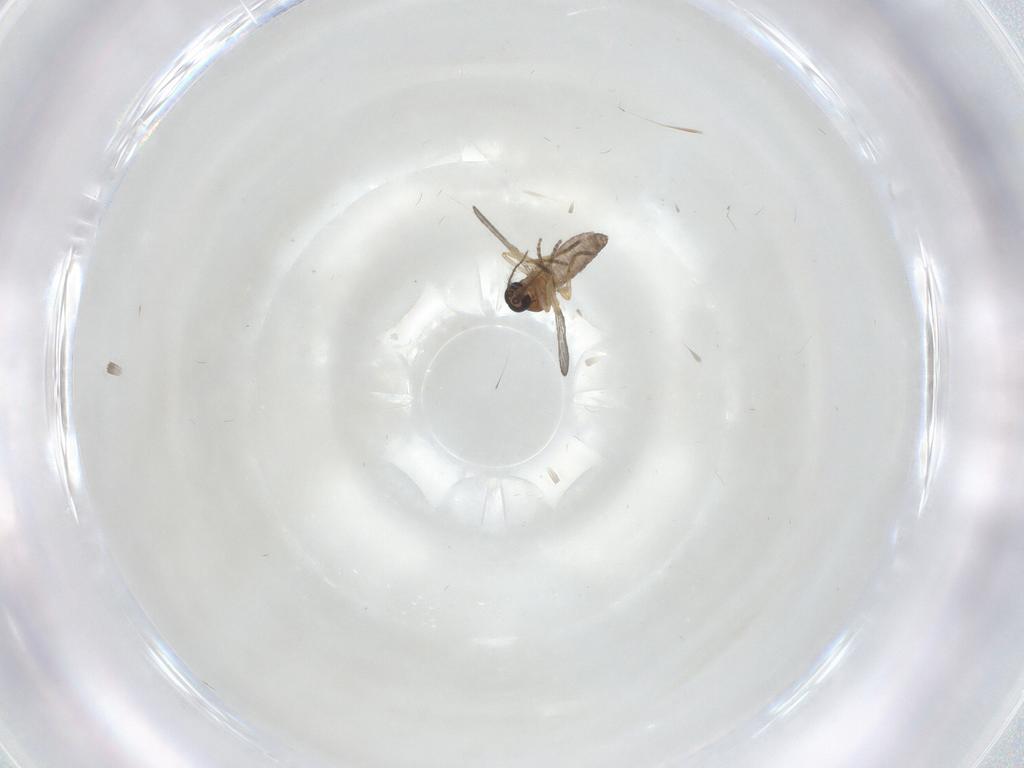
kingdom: Animalia
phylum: Arthropoda
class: Insecta
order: Diptera
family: Ceratopogonidae
